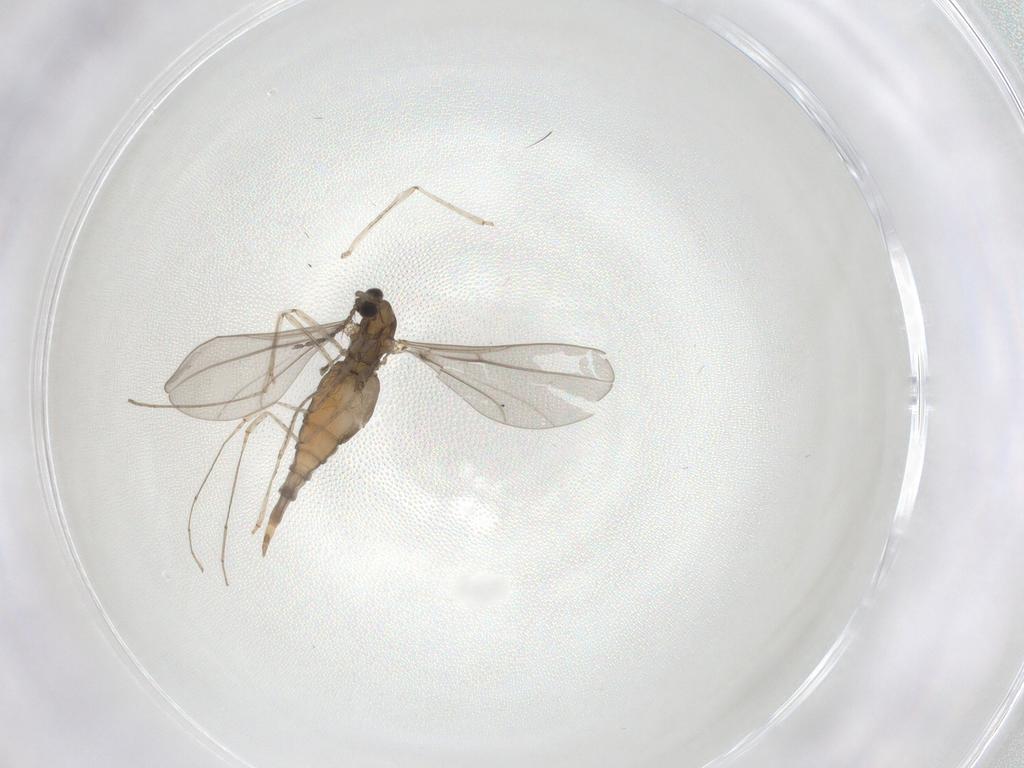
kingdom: Animalia
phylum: Arthropoda
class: Insecta
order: Diptera
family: Cecidomyiidae
